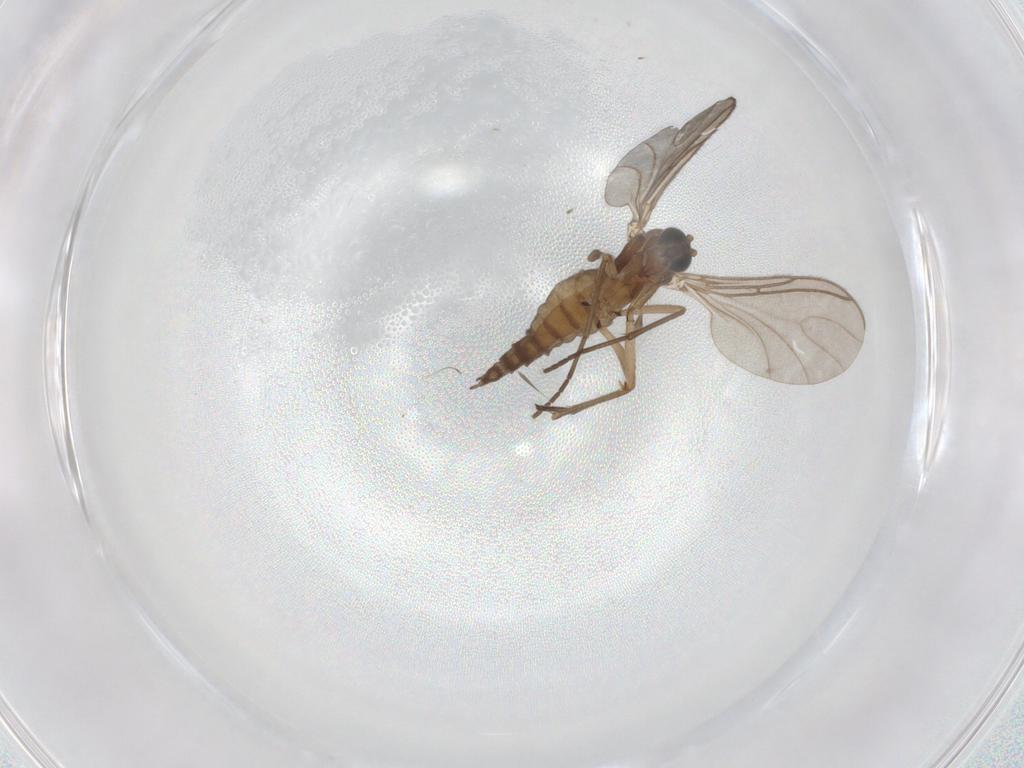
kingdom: Animalia
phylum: Arthropoda
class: Insecta
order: Diptera
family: Sciaridae
